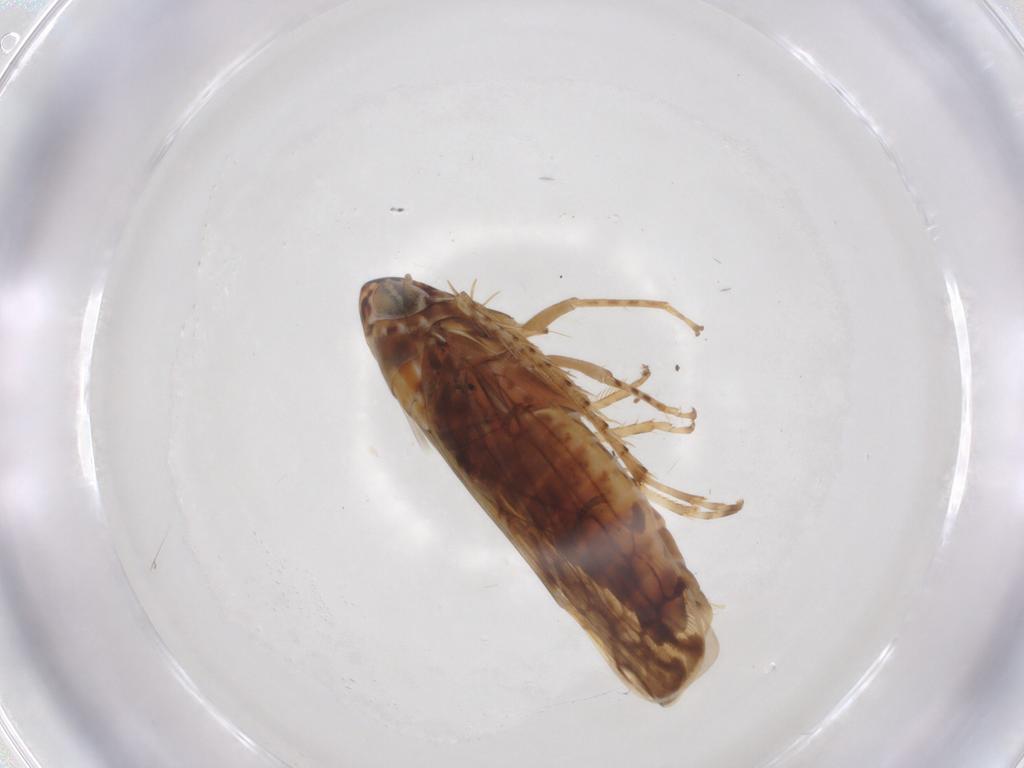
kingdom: Animalia
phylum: Arthropoda
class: Insecta
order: Hemiptera
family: Cicadellidae
